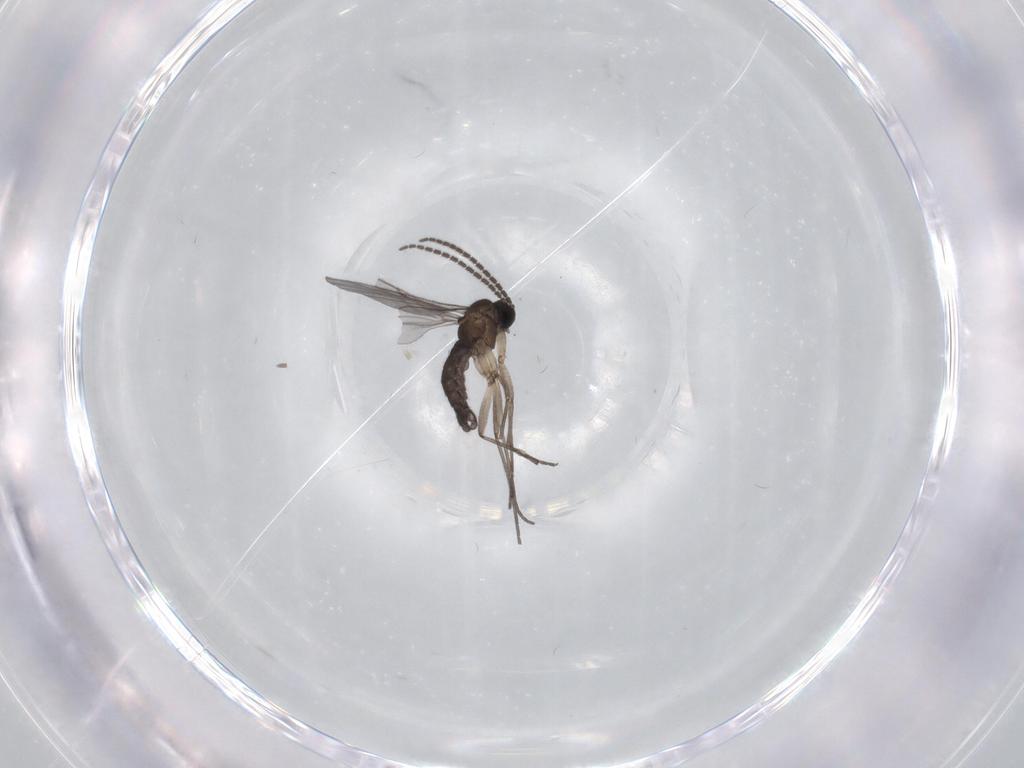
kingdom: Animalia
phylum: Arthropoda
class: Insecta
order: Diptera
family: Sciaridae
